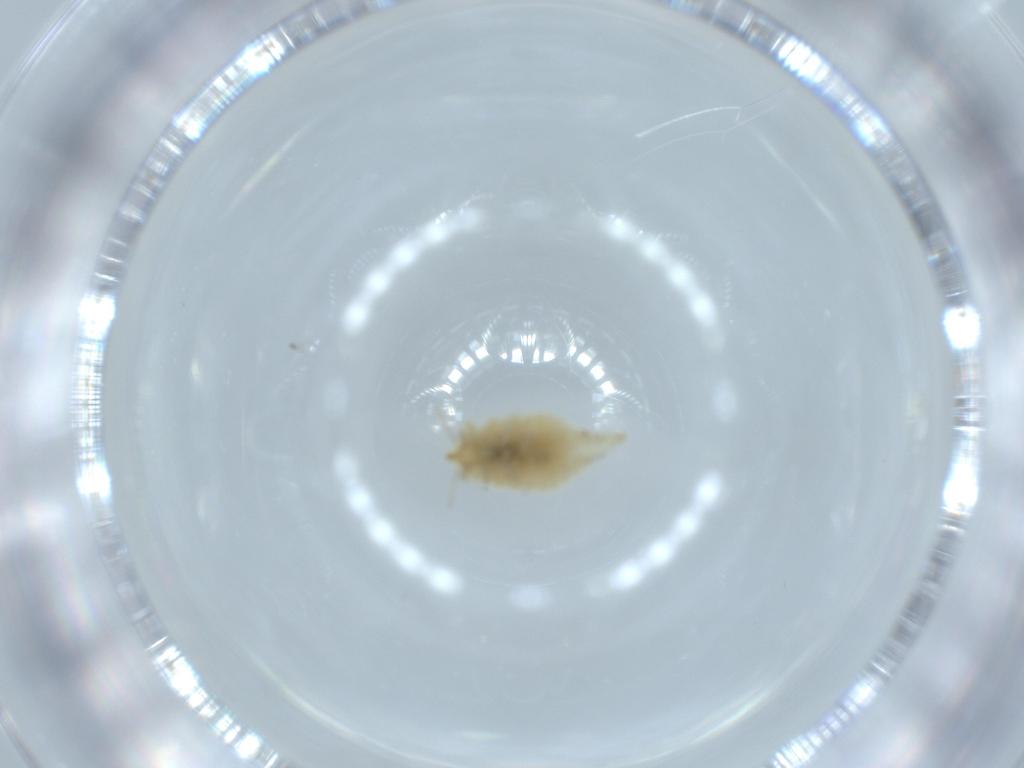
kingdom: Animalia
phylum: Arthropoda
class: Insecta
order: Neuroptera
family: Coniopterygidae
